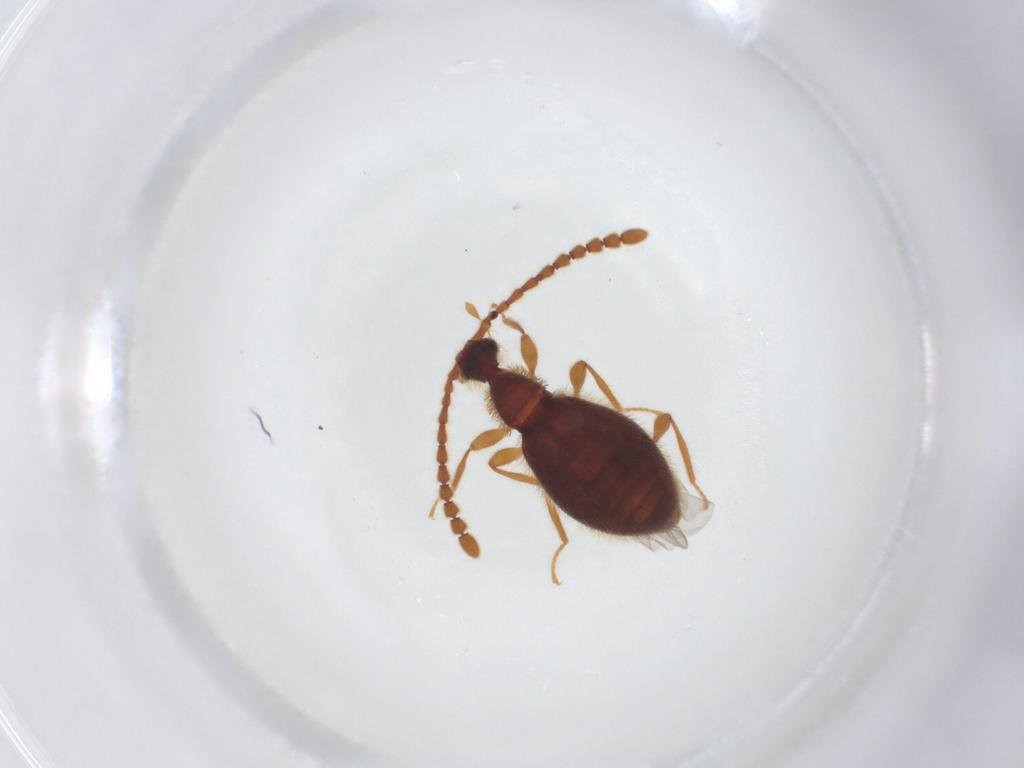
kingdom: Animalia
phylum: Arthropoda
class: Insecta
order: Coleoptera
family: Staphylinidae
